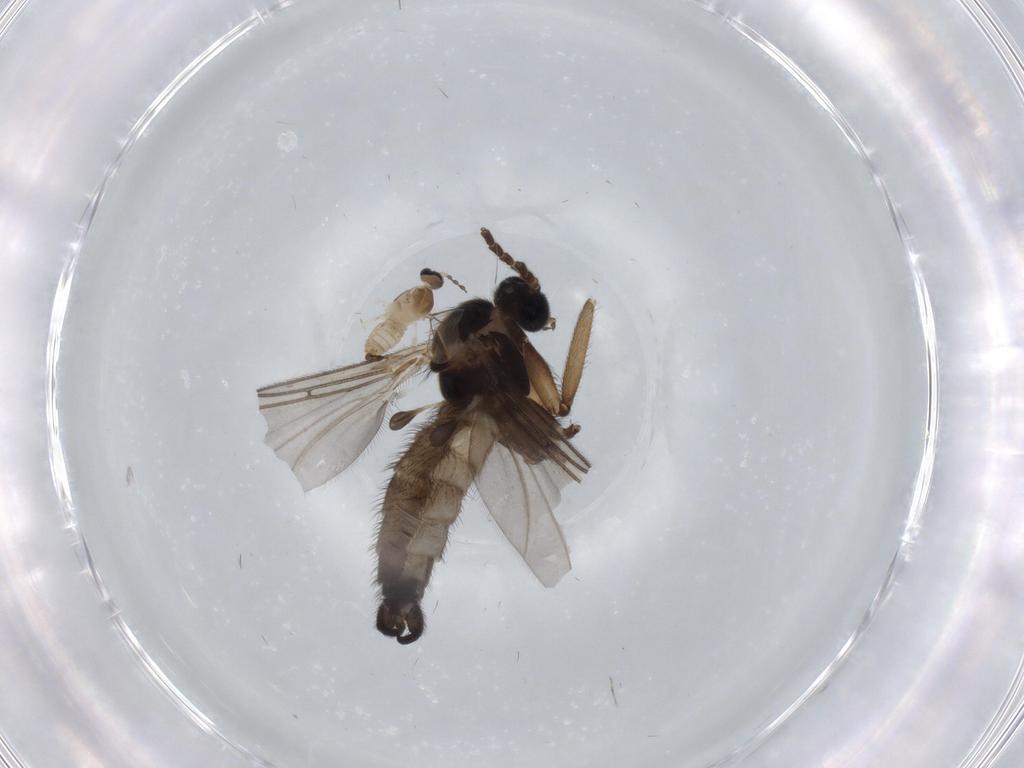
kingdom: Animalia
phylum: Arthropoda
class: Insecta
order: Diptera
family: Sciaridae
